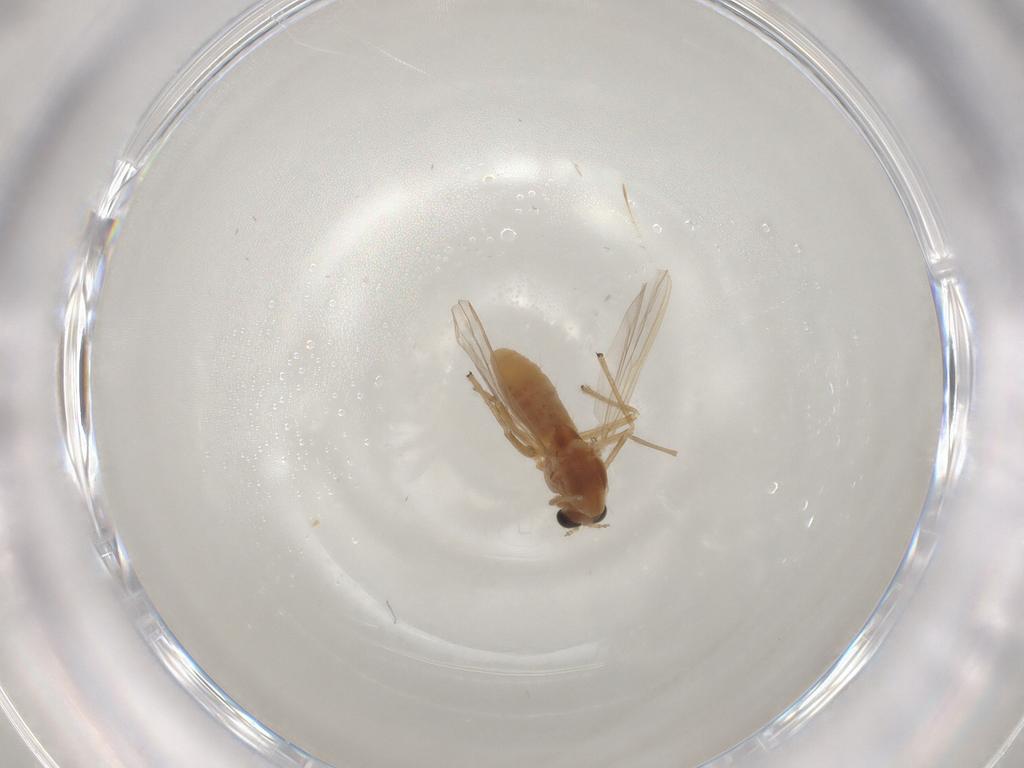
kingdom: Animalia
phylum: Arthropoda
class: Insecta
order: Diptera
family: Chironomidae
